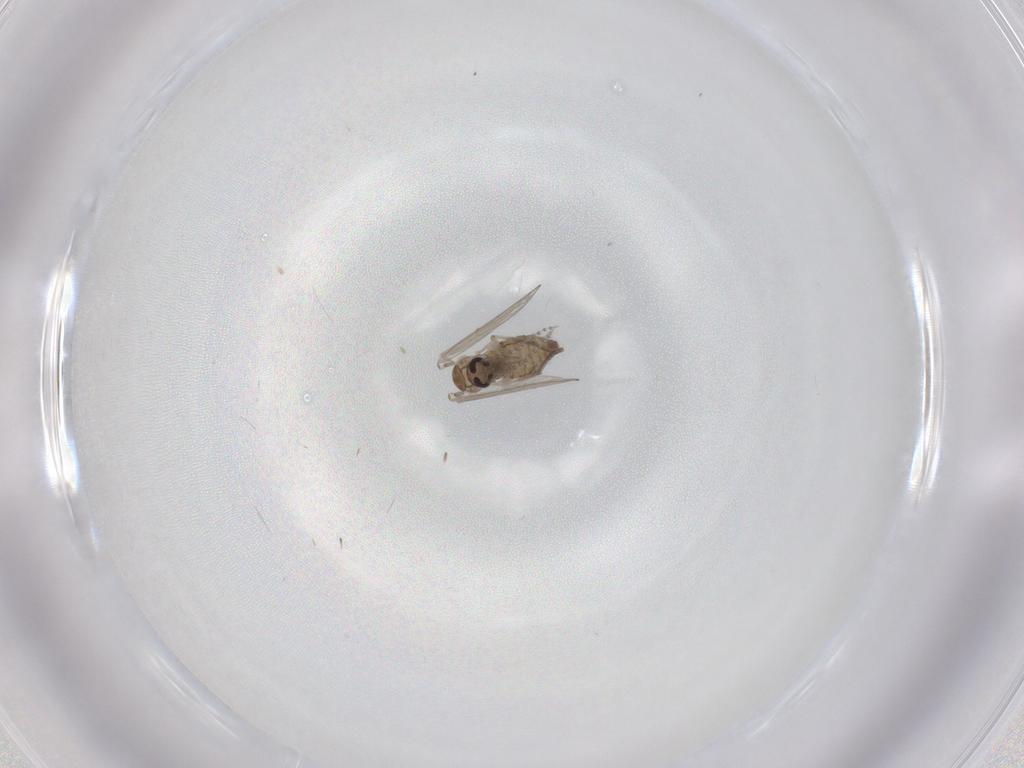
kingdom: Animalia
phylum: Arthropoda
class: Insecta
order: Diptera
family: Psychodidae
